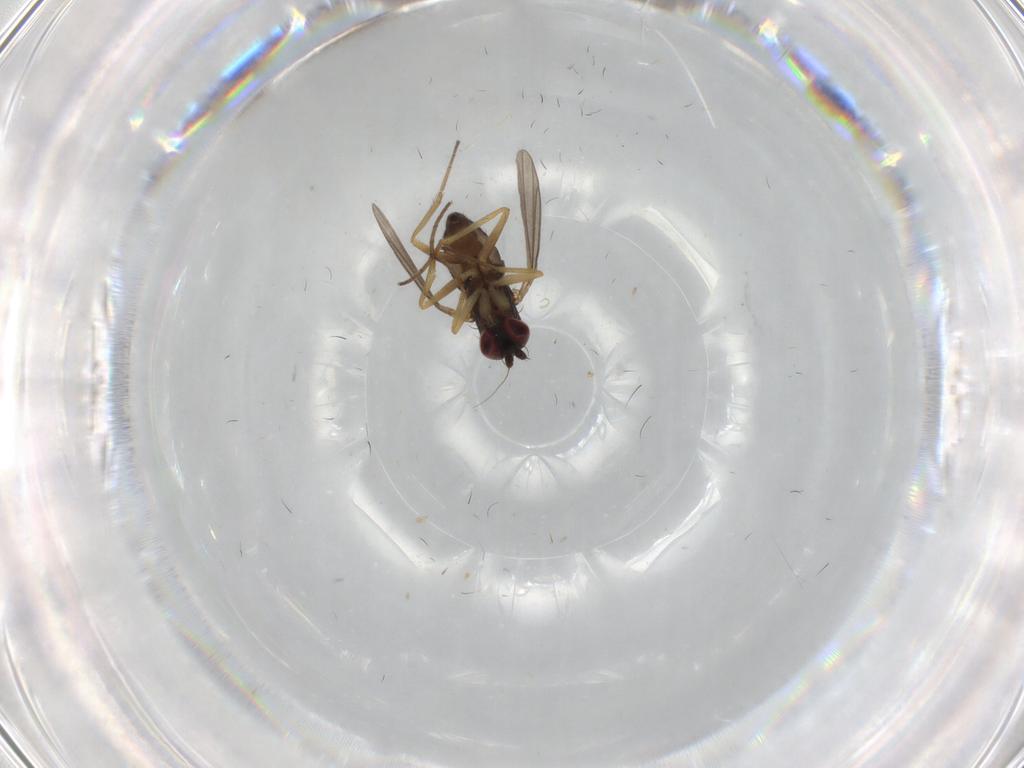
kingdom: Animalia
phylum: Arthropoda
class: Insecta
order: Diptera
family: Dolichopodidae
